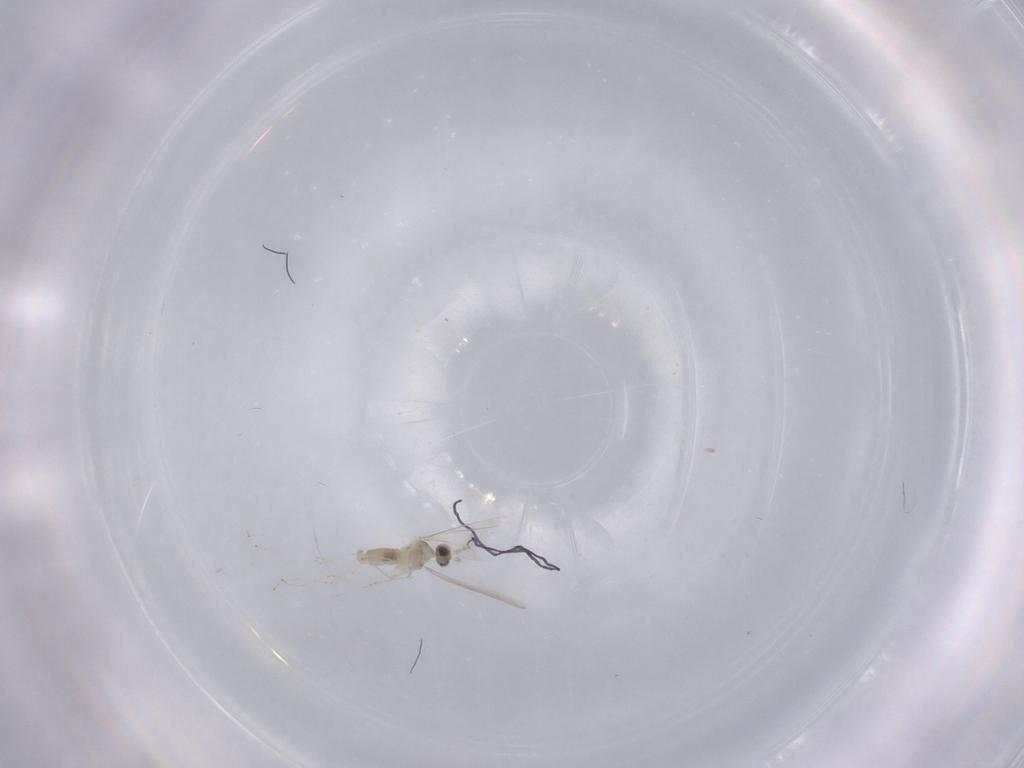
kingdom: Animalia
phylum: Arthropoda
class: Insecta
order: Diptera
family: Cecidomyiidae
